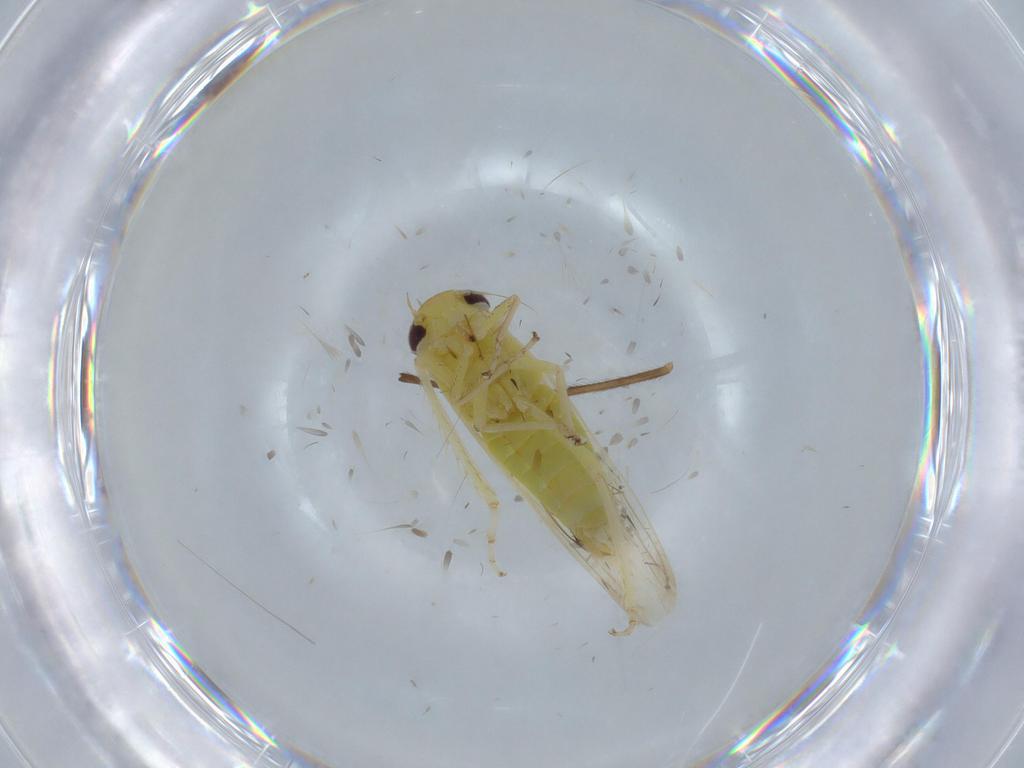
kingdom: Animalia
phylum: Arthropoda
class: Insecta
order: Hemiptera
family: Cicadellidae
